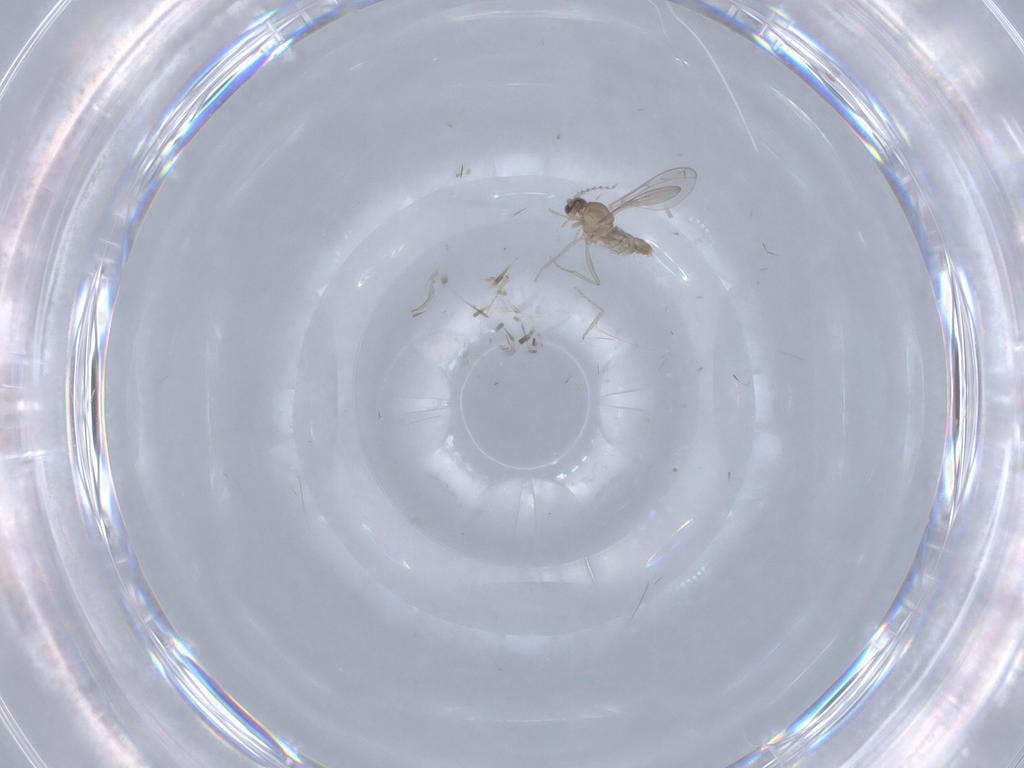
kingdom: Animalia
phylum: Arthropoda
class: Insecta
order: Diptera
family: Cecidomyiidae
